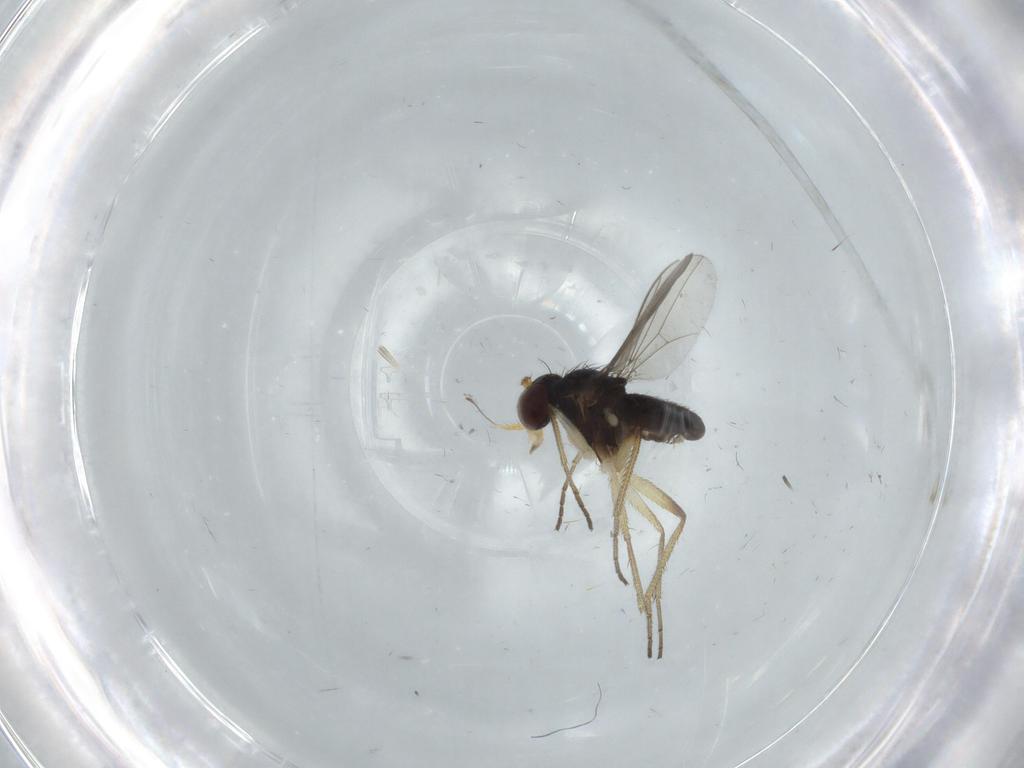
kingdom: Animalia
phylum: Arthropoda
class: Insecta
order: Diptera
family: Dolichopodidae
